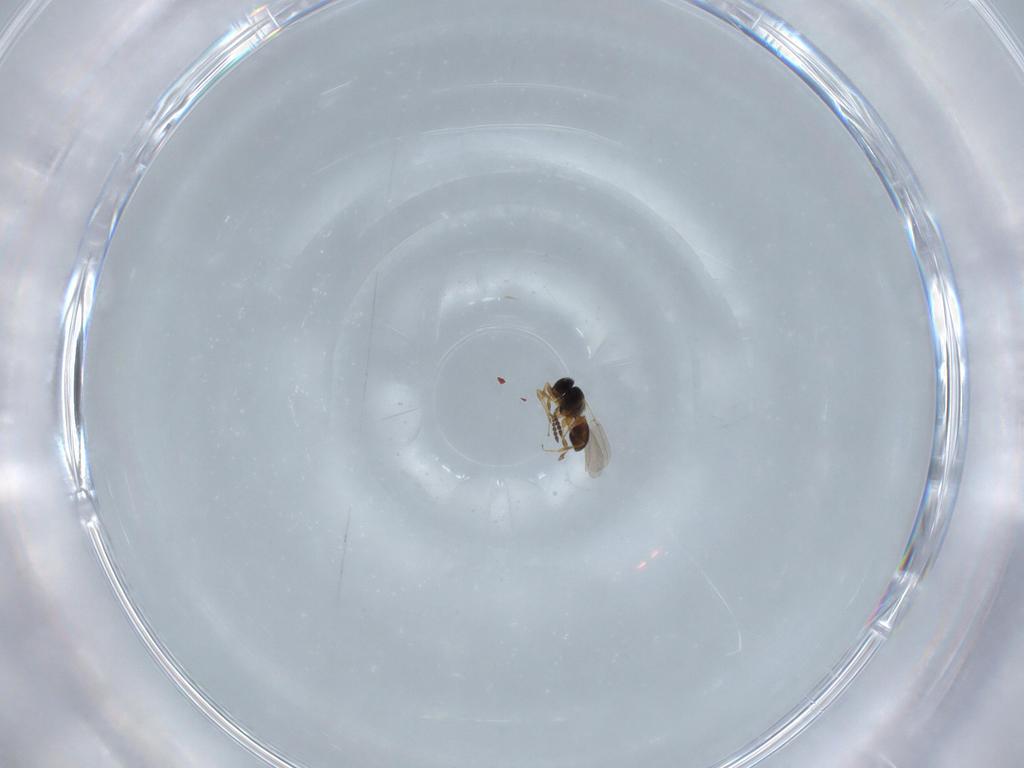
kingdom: Animalia
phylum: Arthropoda
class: Insecta
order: Hymenoptera
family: Platygastridae
